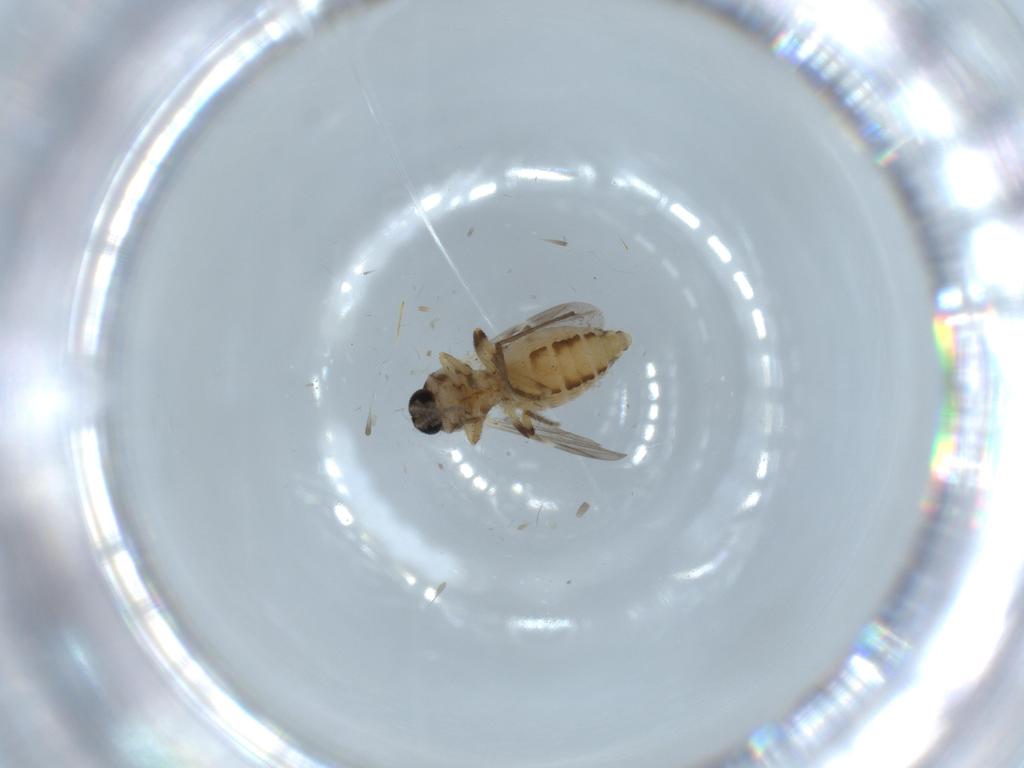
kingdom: Animalia
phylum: Arthropoda
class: Insecta
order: Diptera
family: Ceratopogonidae
